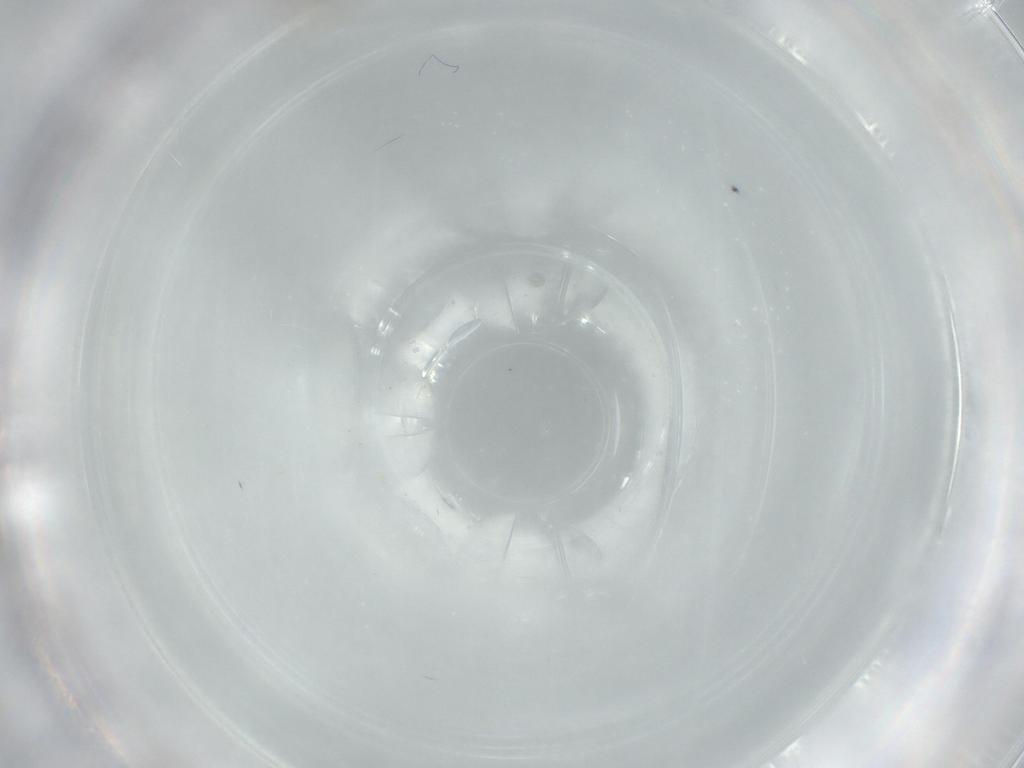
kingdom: Animalia
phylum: Arthropoda
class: Insecta
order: Diptera
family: Cecidomyiidae
